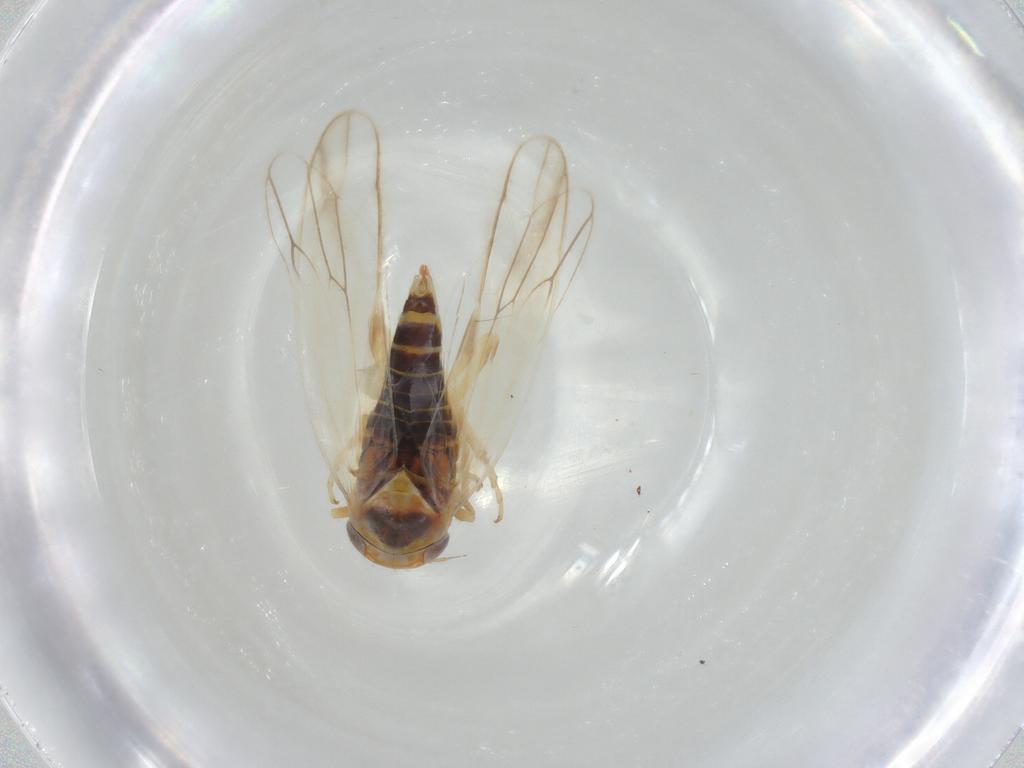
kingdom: Animalia
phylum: Arthropoda
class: Insecta
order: Hemiptera
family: Cicadellidae
